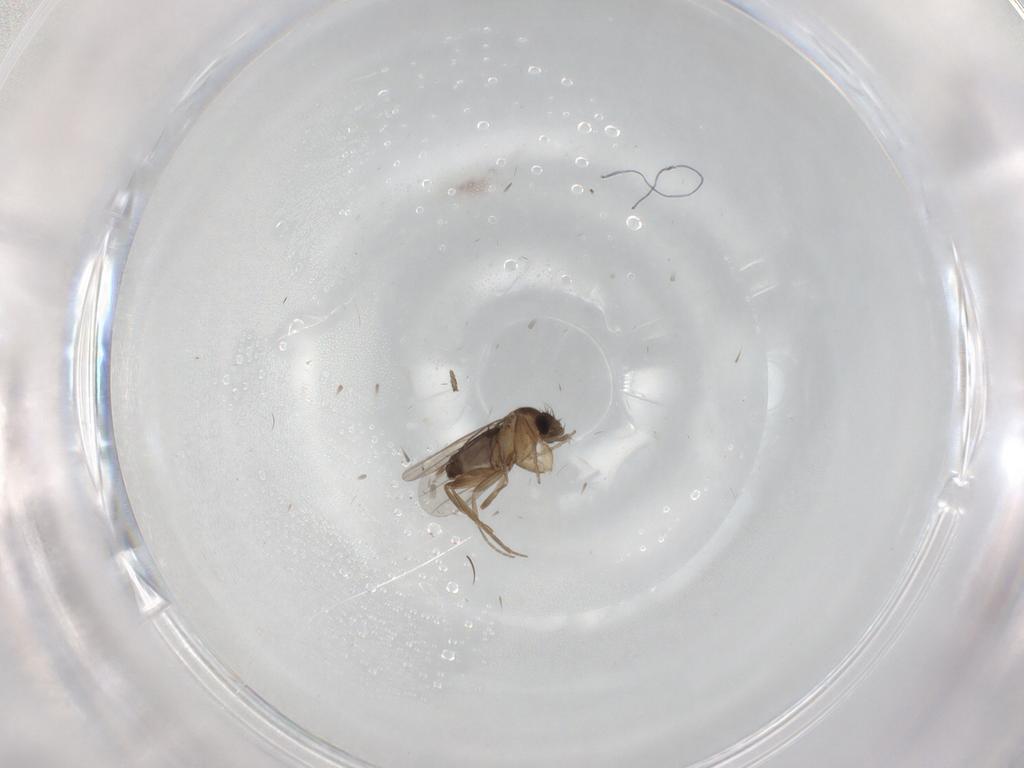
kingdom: Animalia
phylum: Arthropoda
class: Insecta
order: Diptera
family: Phoridae
